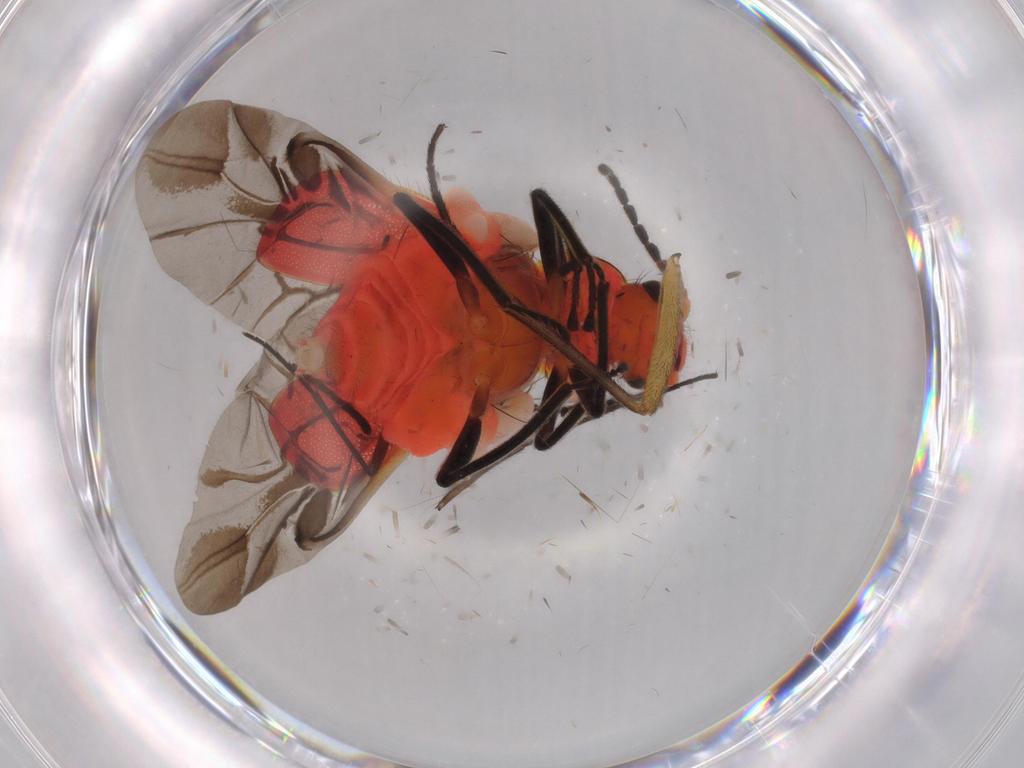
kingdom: Animalia
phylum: Arthropoda
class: Insecta
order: Coleoptera
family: Melyridae
